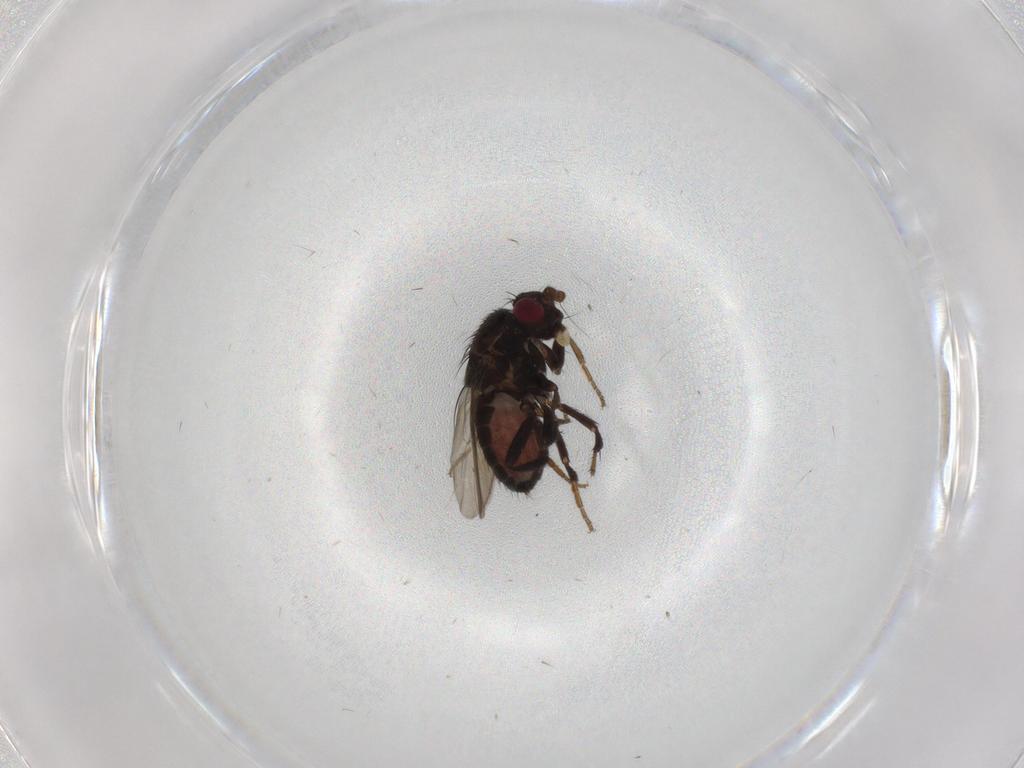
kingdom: Animalia
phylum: Arthropoda
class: Insecta
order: Diptera
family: Sphaeroceridae
